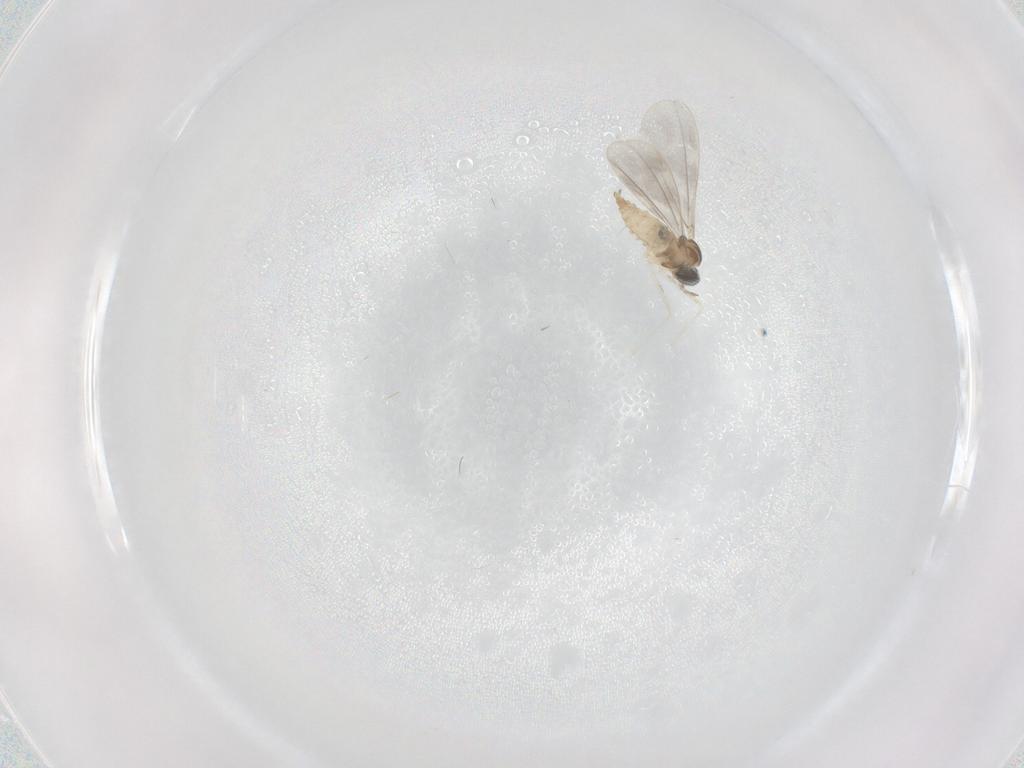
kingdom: Animalia
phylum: Arthropoda
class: Insecta
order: Diptera
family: Cecidomyiidae
